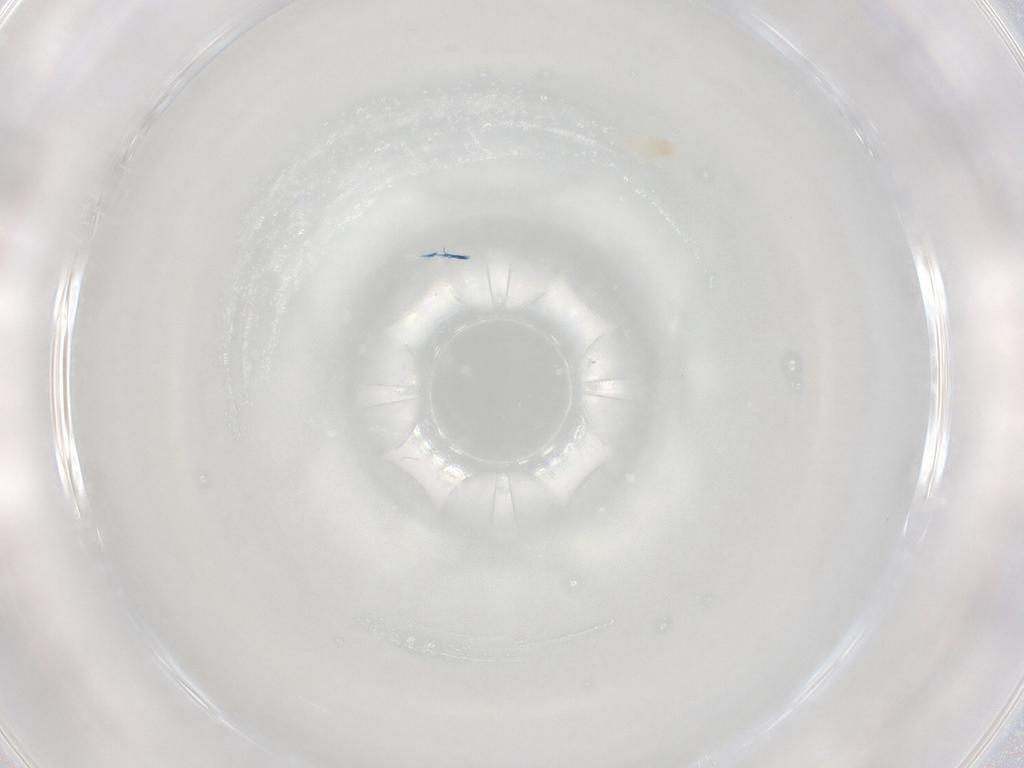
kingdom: Animalia
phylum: Arthropoda
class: Arachnida
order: Trombidiformes
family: Eupodidae
